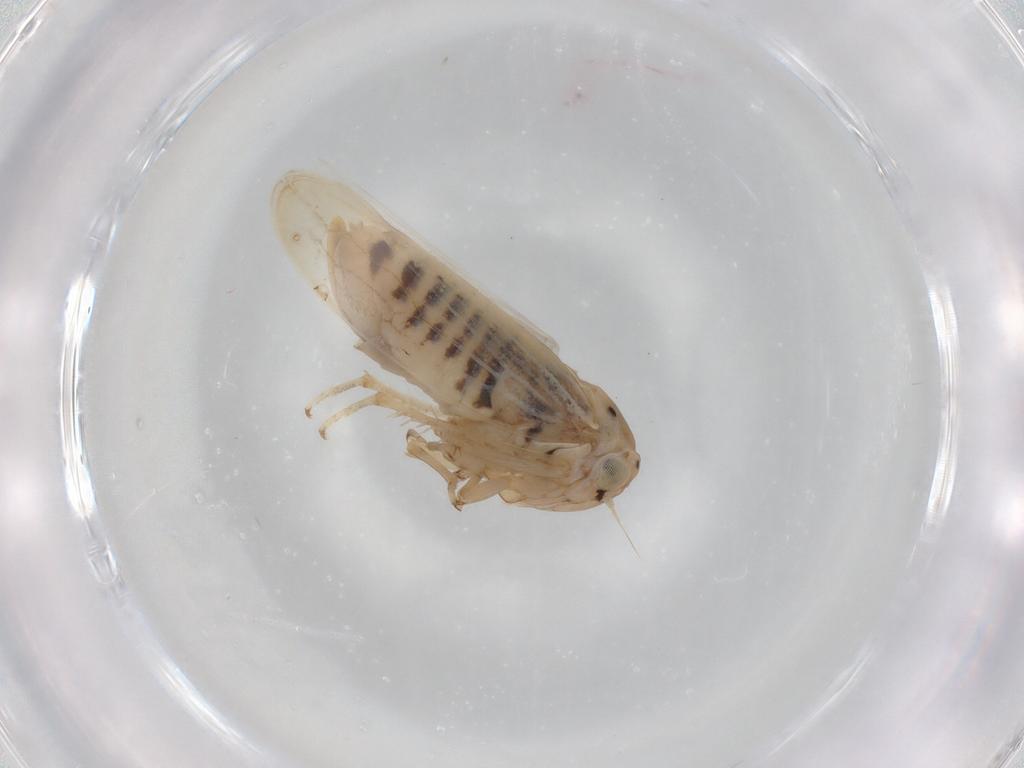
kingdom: Animalia
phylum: Arthropoda
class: Insecta
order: Hemiptera
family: Cicadellidae
